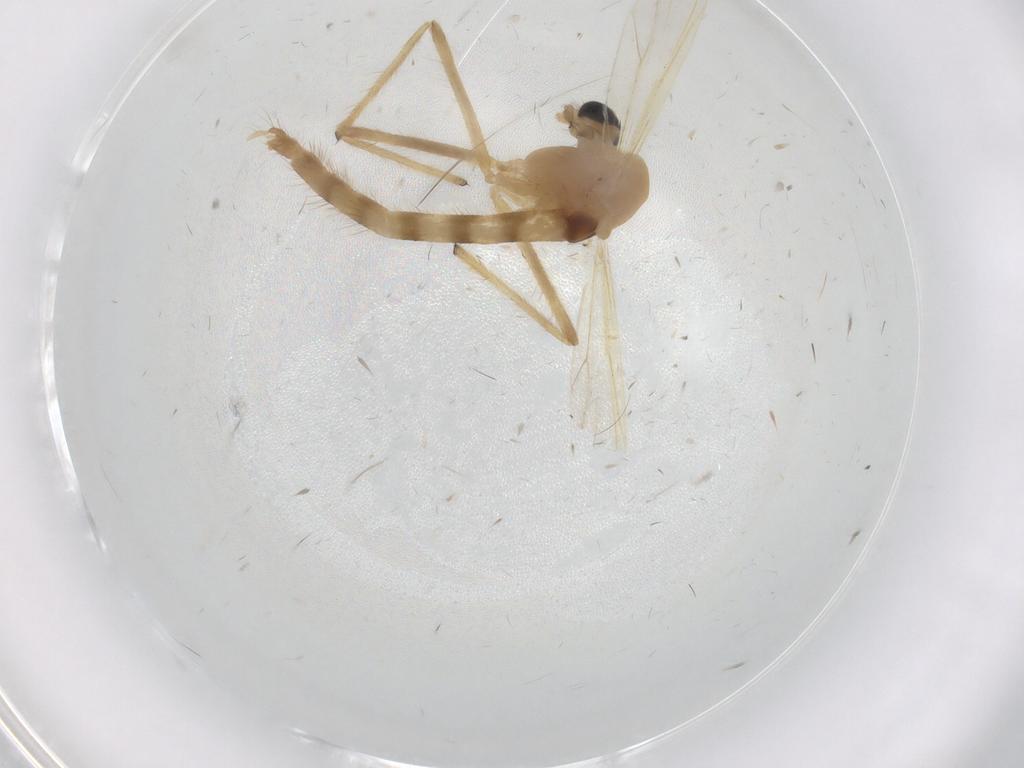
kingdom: Animalia
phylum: Arthropoda
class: Insecta
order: Diptera
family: Chironomidae
